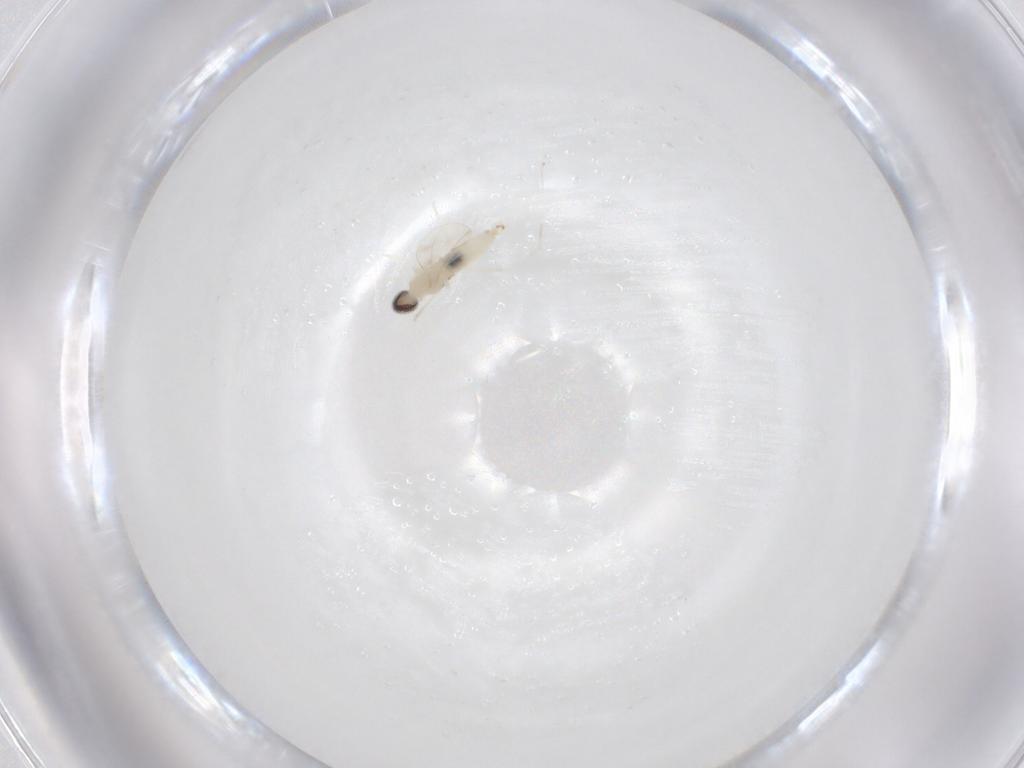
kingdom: Animalia
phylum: Arthropoda
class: Insecta
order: Diptera
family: Cecidomyiidae
